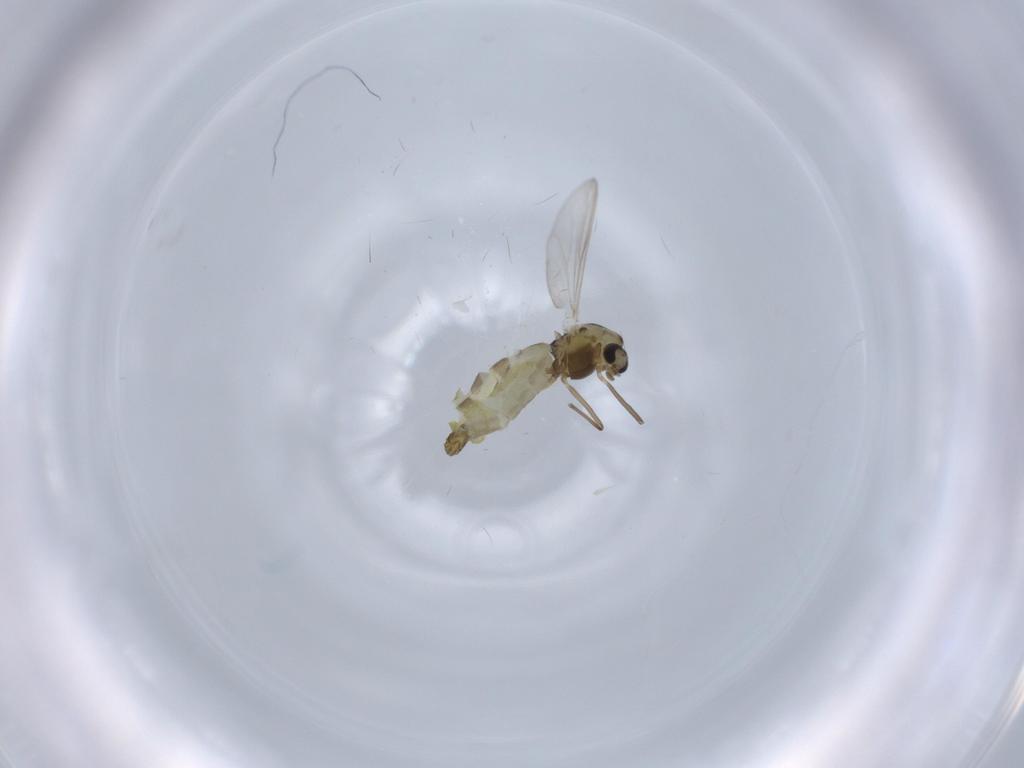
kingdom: Animalia
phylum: Arthropoda
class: Insecta
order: Diptera
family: Chironomidae
